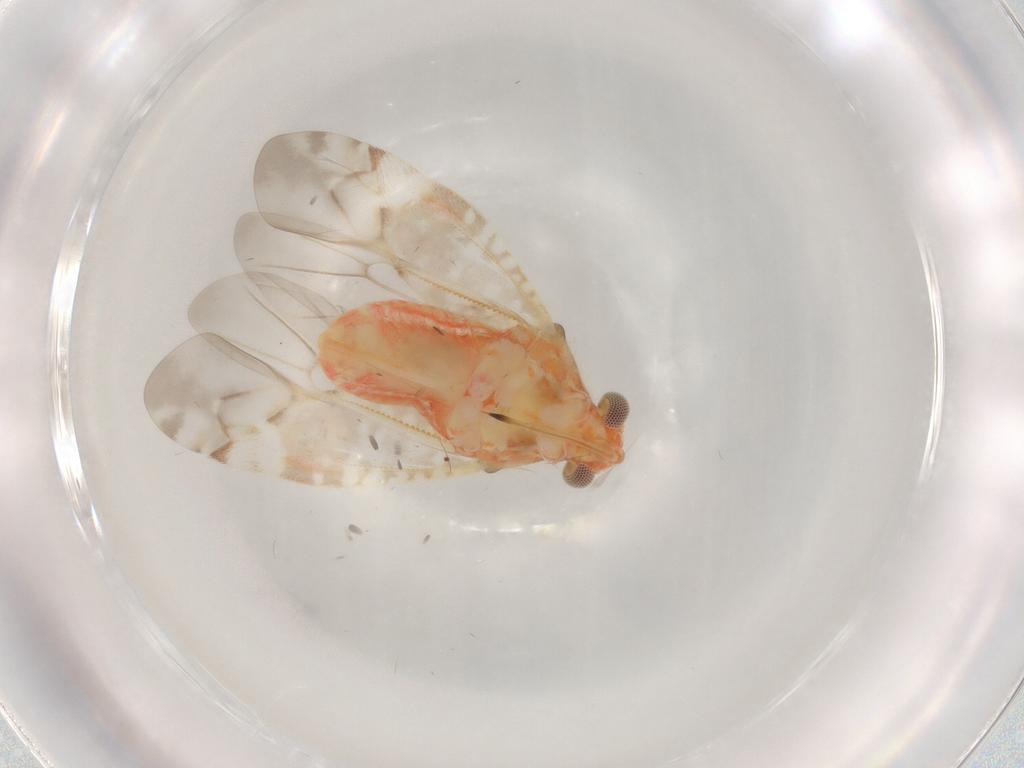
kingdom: Animalia
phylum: Arthropoda
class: Insecta
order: Hemiptera
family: Miridae
